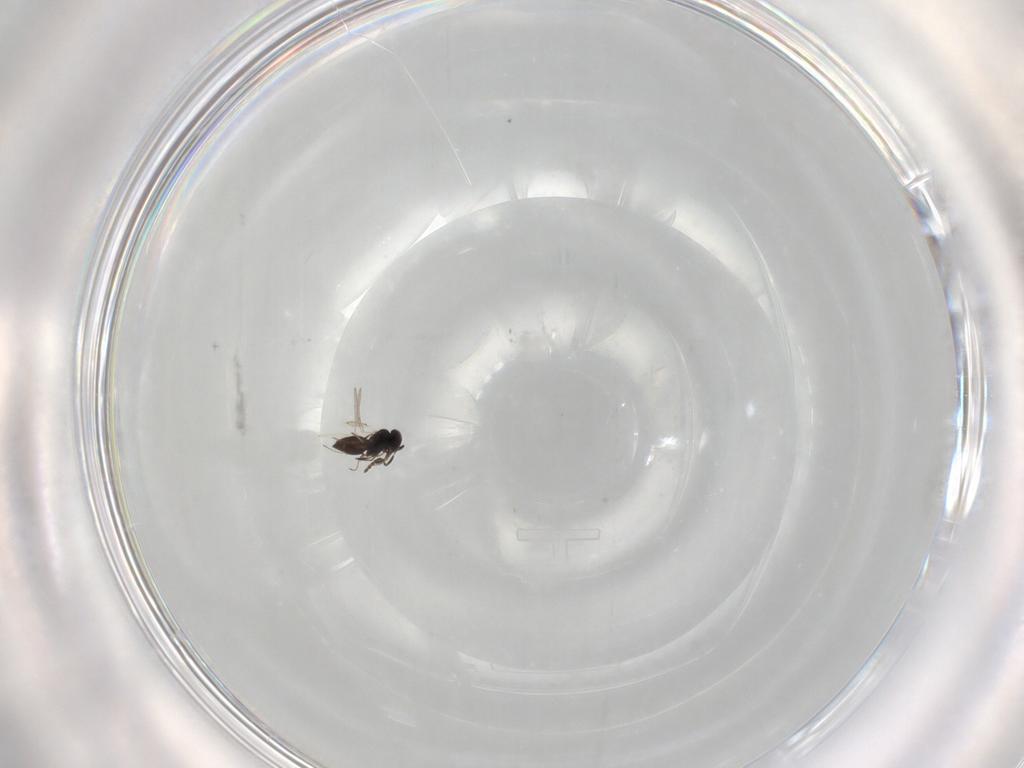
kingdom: Animalia
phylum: Arthropoda
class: Insecta
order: Hymenoptera
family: Scelionidae
